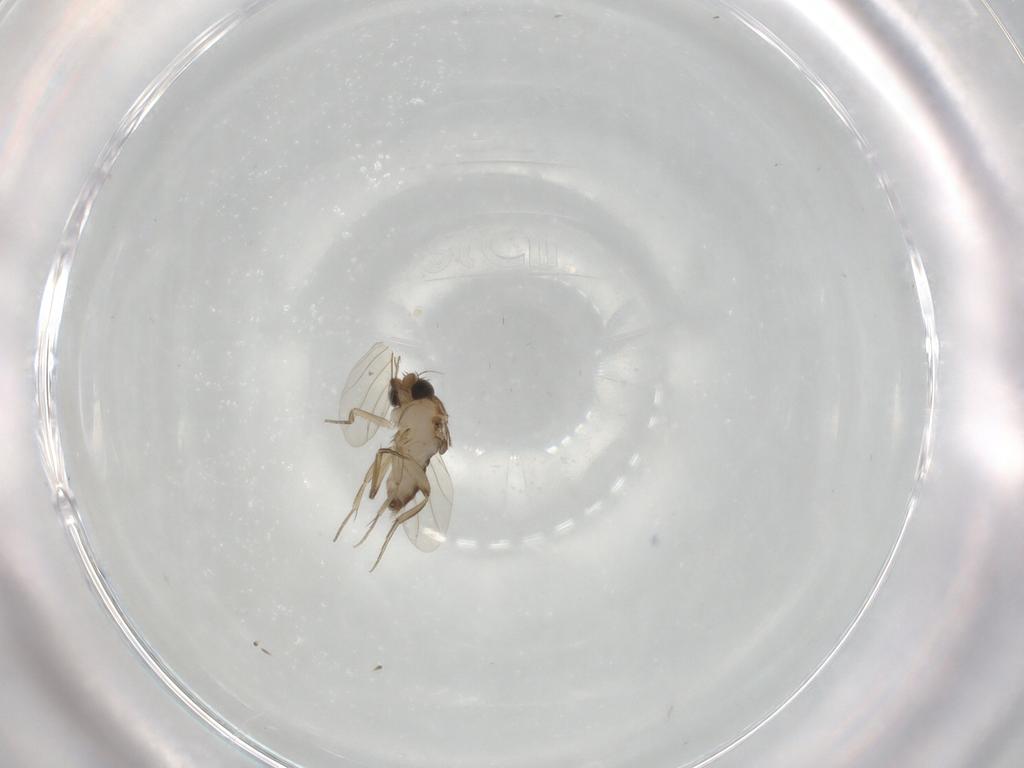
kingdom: Animalia
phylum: Arthropoda
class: Insecta
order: Diptera
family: Phoridae
